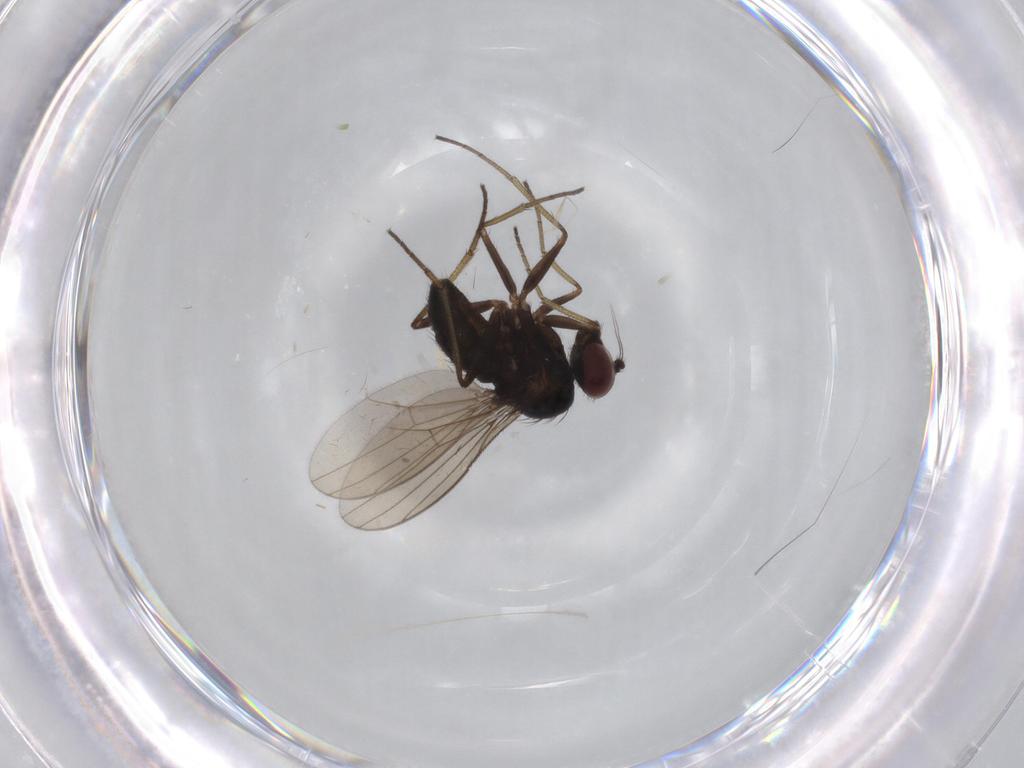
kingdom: Animalia
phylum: Arthropoda
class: Insecta
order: Diptera
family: Dolichopodidae
